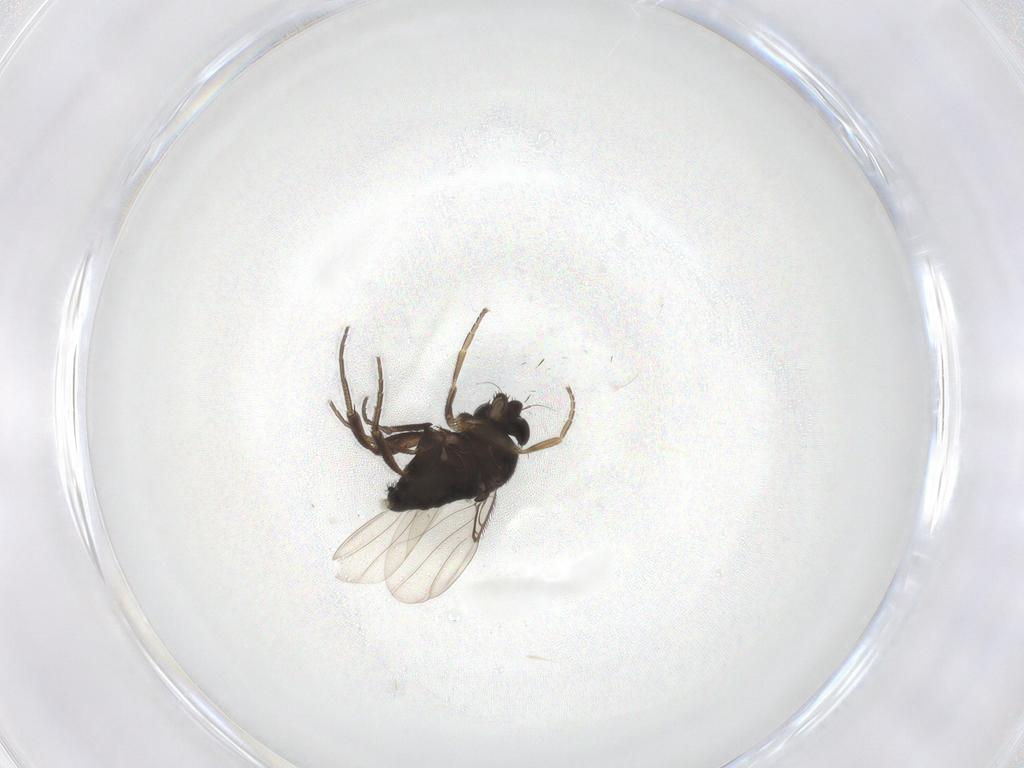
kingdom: Animalia
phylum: Arthropoda
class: Insecta
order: Diptera
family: Phoridae
